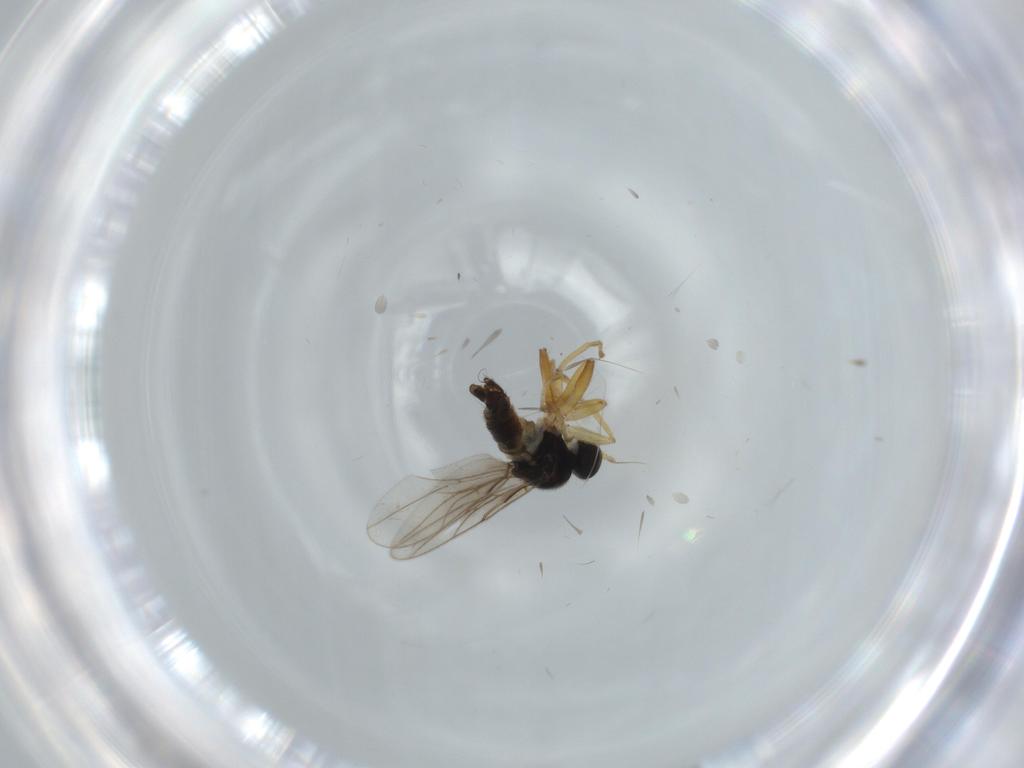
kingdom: Animalia
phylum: Arthropoda
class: Insecta
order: Diptera
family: Hybotidae
